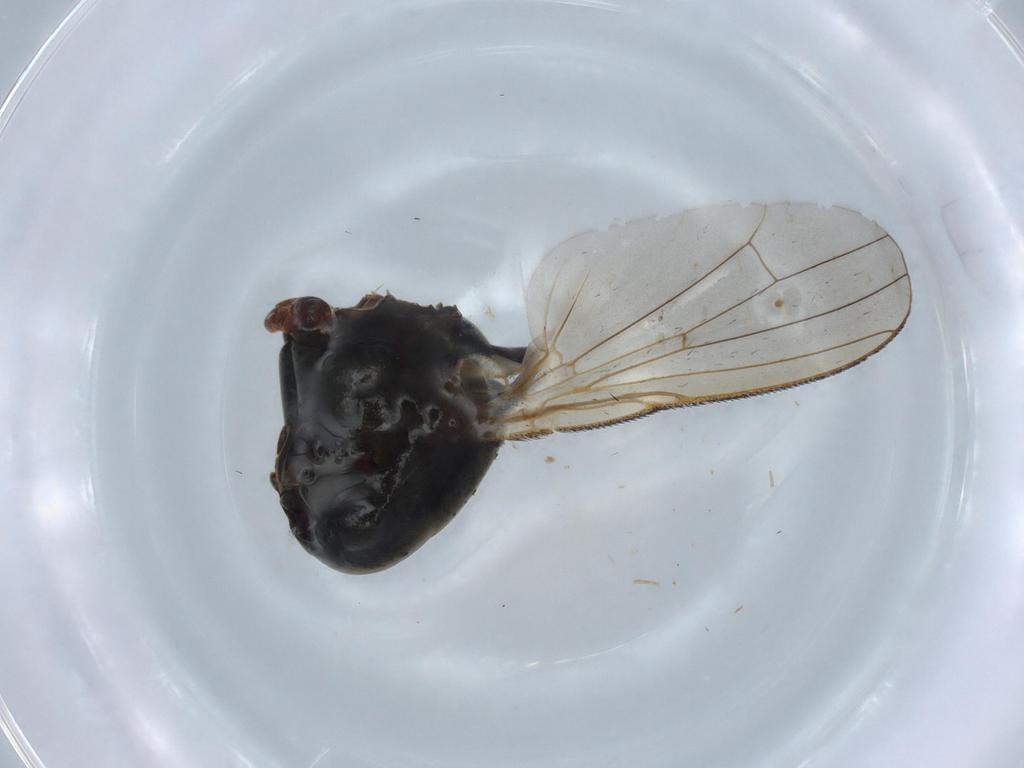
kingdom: Animalia
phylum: Arthropoda
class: Insecta
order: Diptera
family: Muscidae
